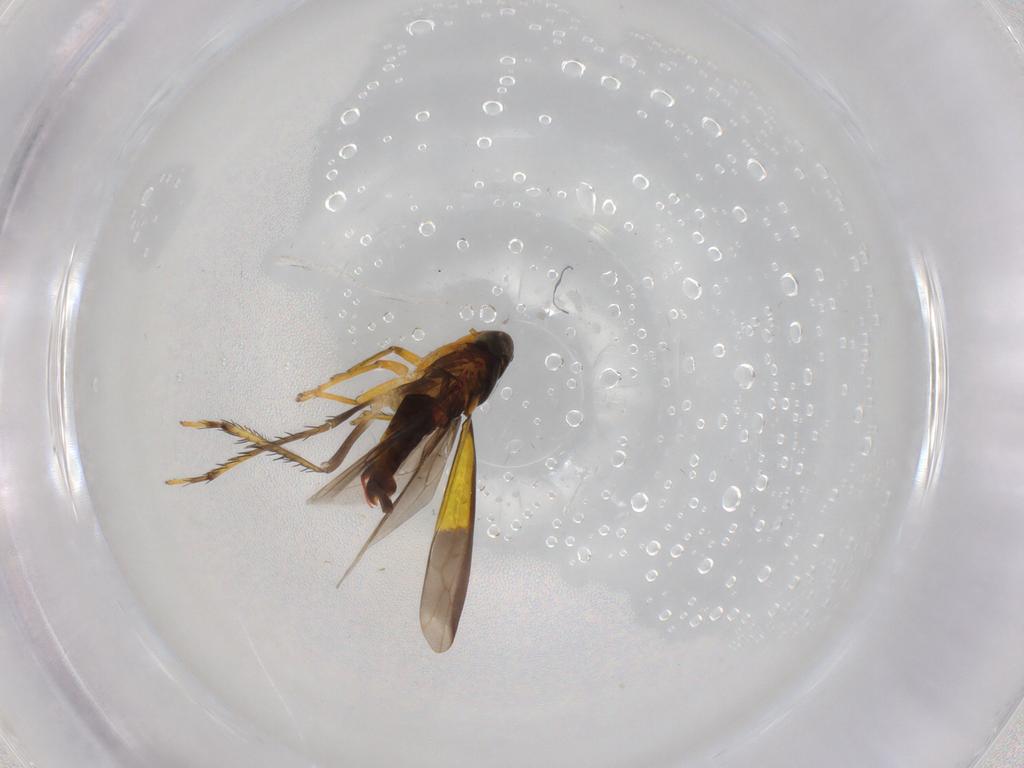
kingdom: Animalia
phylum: Arthropoda
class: Insecta
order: Hemiptera
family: Cicadellidae
